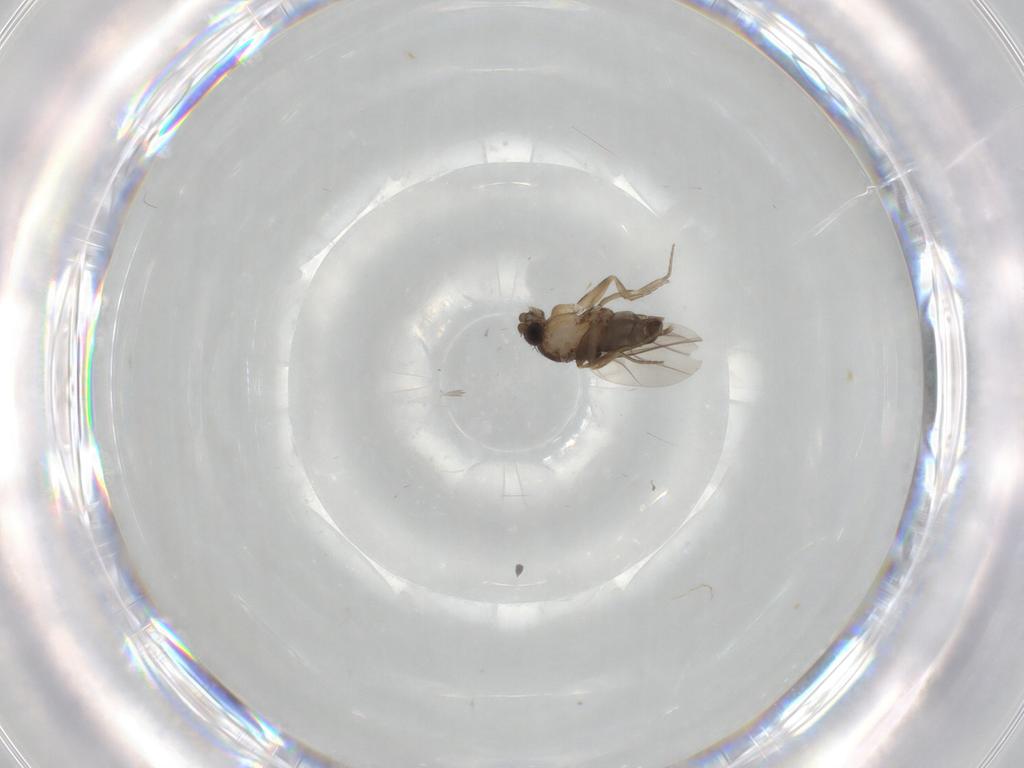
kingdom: Animalia
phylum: Arthropoda
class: Insecta
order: Diptera
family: Phoridae
